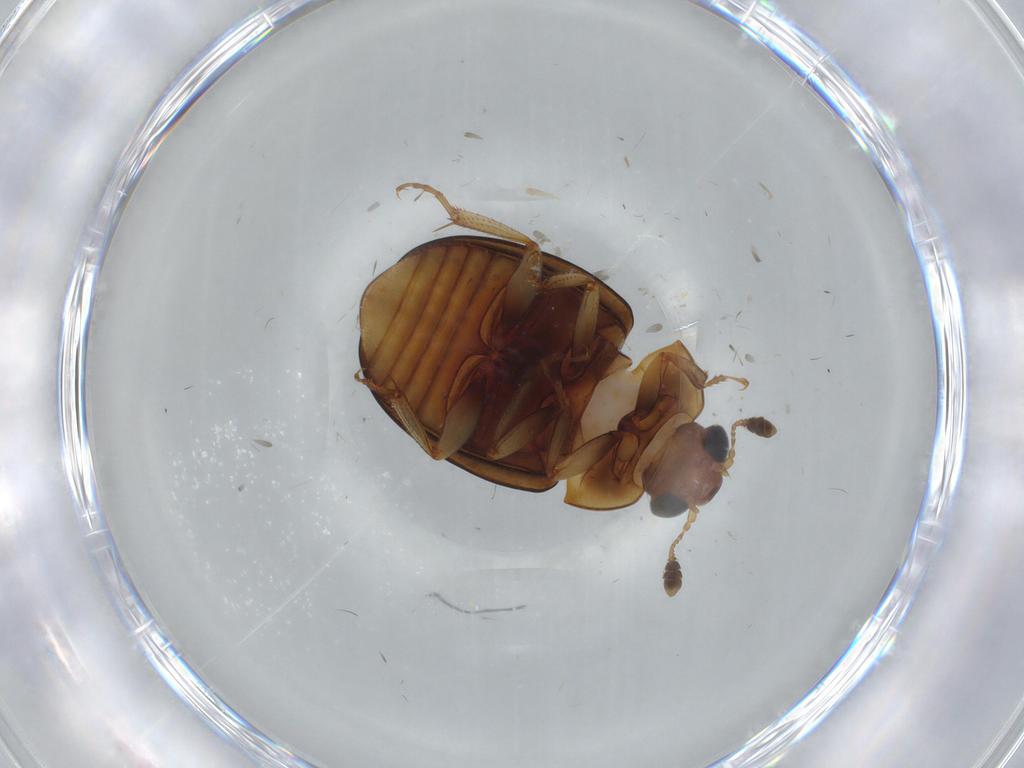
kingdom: Animalia
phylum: Arthropoda
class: Insecta
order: Coleoptera
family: Nitidulidae
